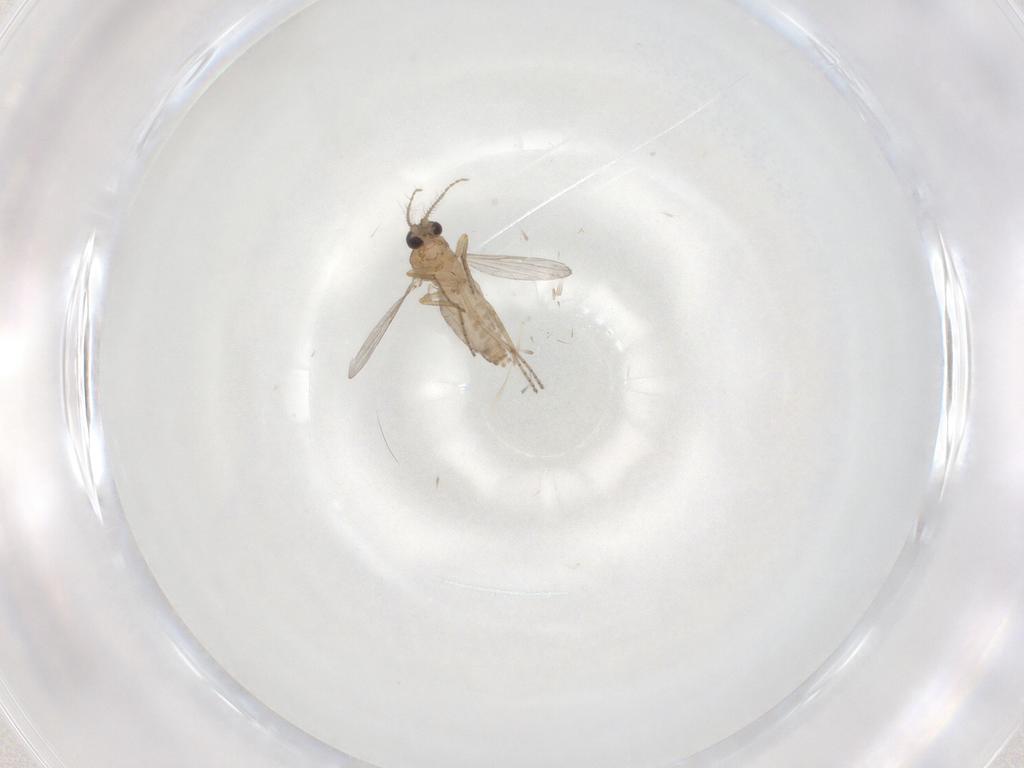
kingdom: Animalia
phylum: Arthropoda
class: Insecta
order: Diptera
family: Ceratopogonidae
